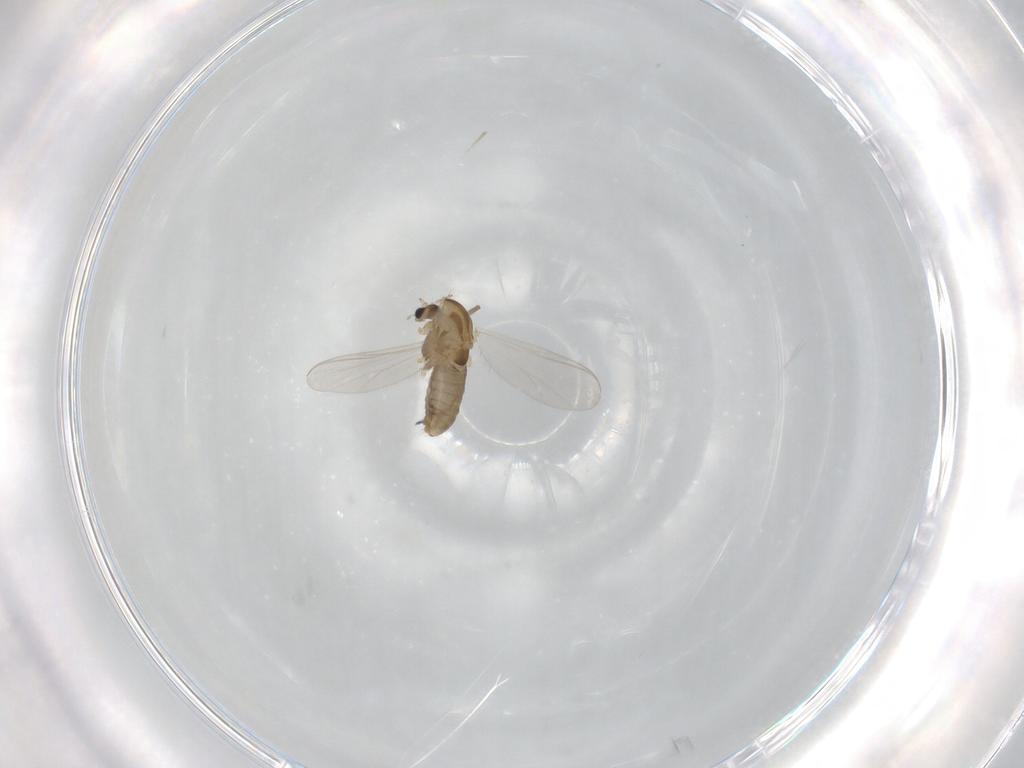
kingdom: Animalia
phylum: Arthropoda
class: Insecta
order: Diptera
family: Chironomidae
